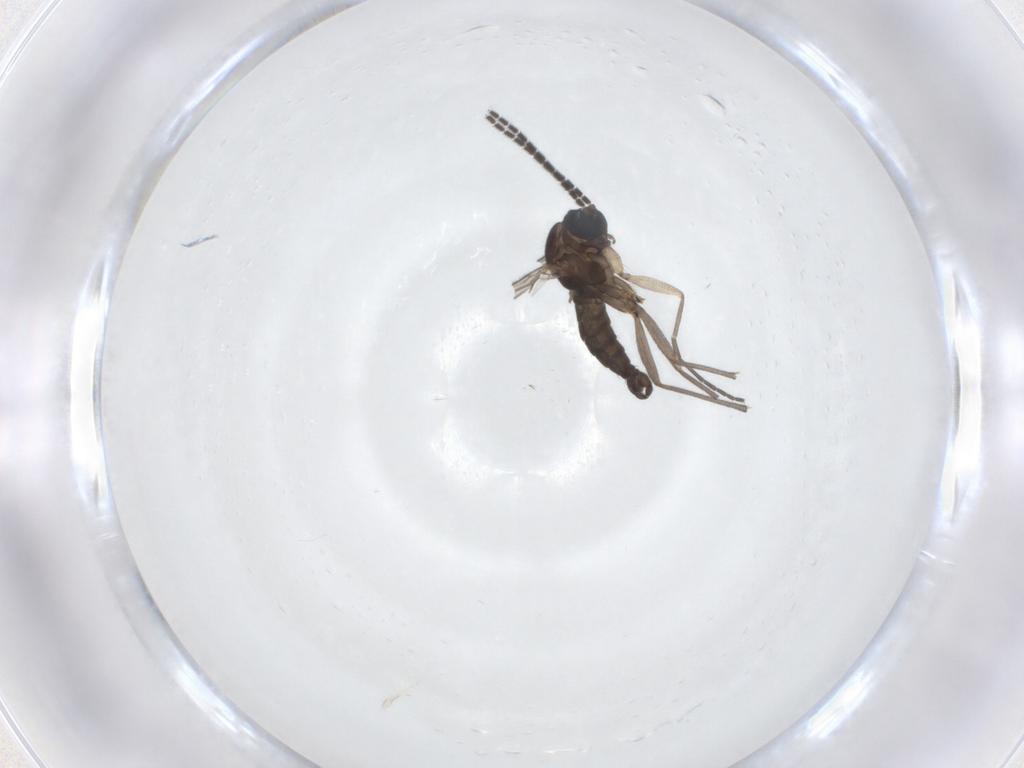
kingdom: Animalia
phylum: Arthropoda
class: Insecta
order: Diptera
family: Sciaridae
